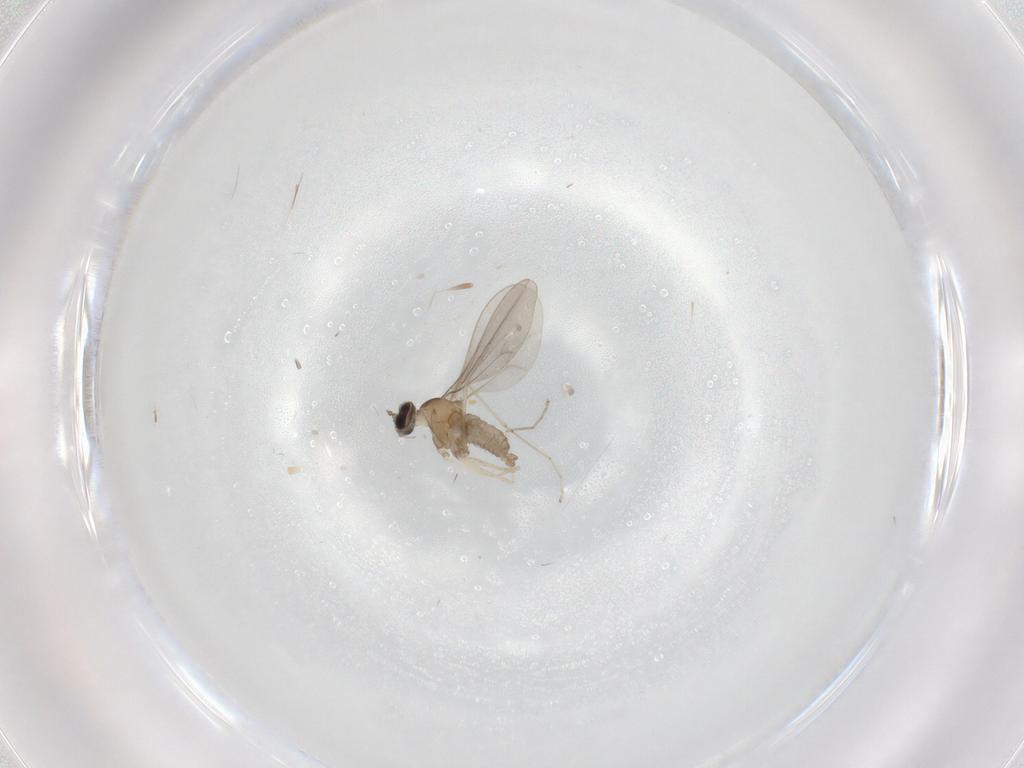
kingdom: Animalia
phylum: Arthropoda
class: Insecta
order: Diptera
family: Cecidomyiidae
